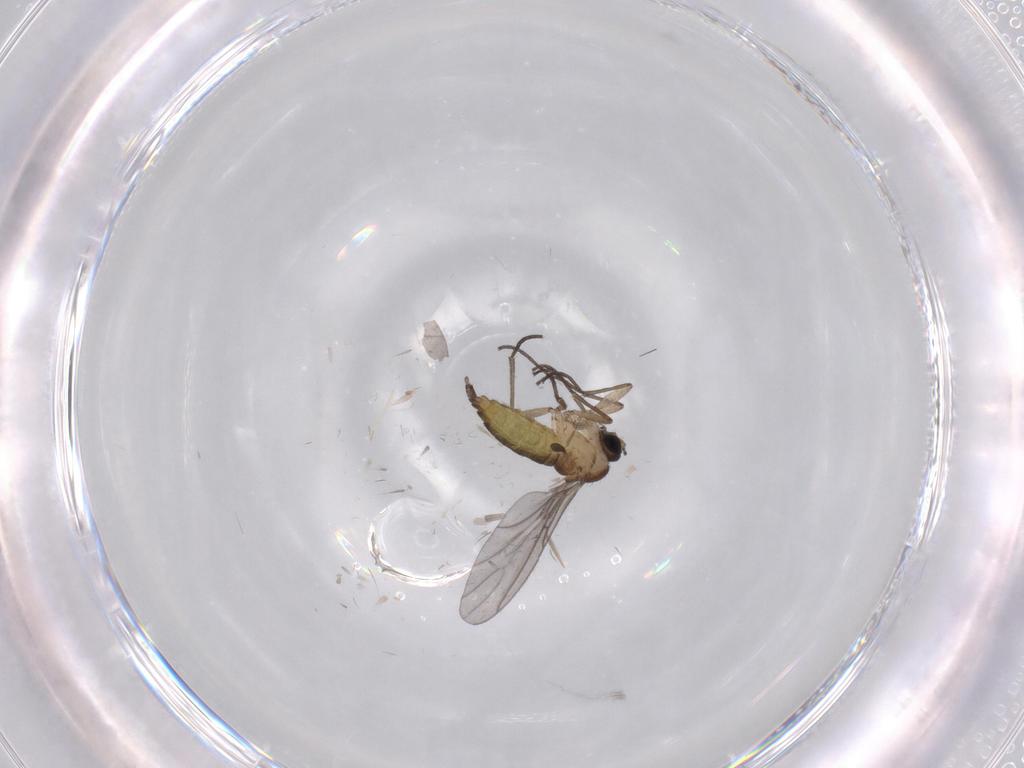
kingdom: Animalia
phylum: Arthropoda
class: Insecta
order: Diptera
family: Sciaridae
